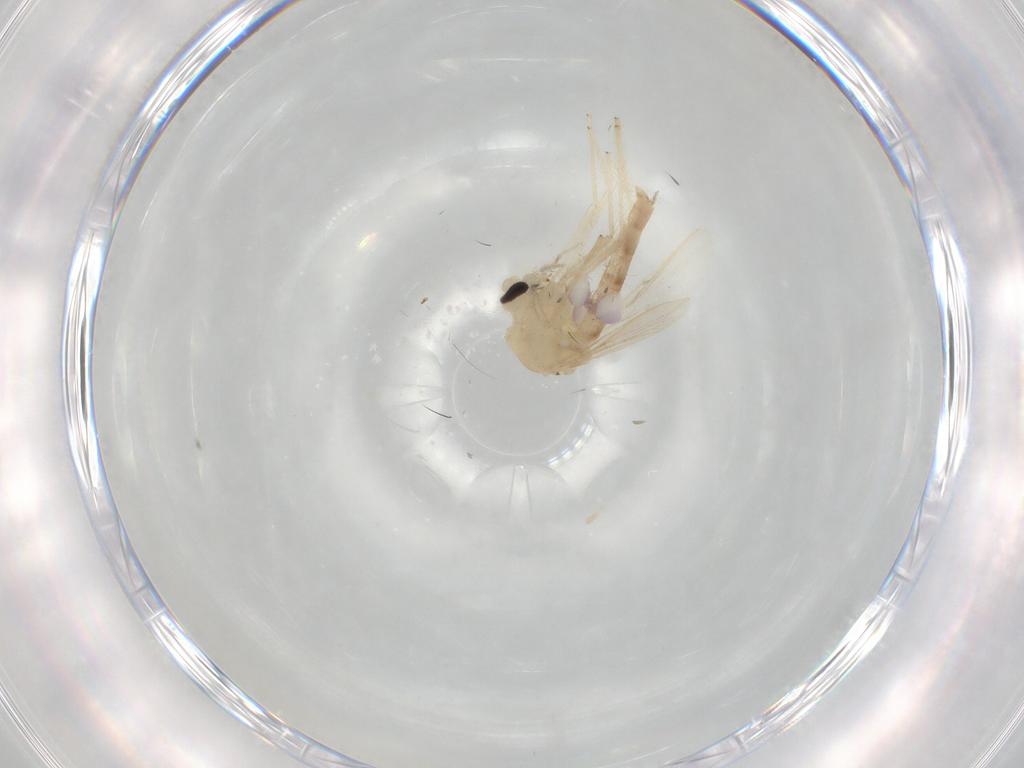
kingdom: Animalia
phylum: Arthropoda
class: Insecta
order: Diptera
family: Chironomidae
